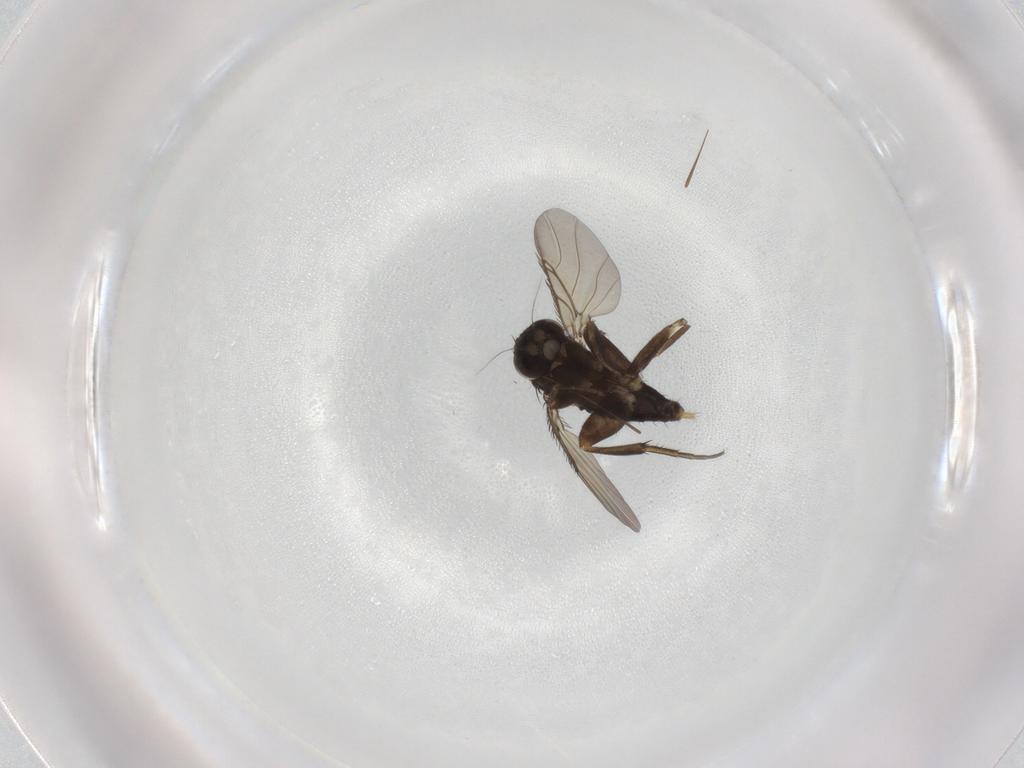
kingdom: Animalia
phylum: Arthropoda
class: Insecta
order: Diptera
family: Phoridae
